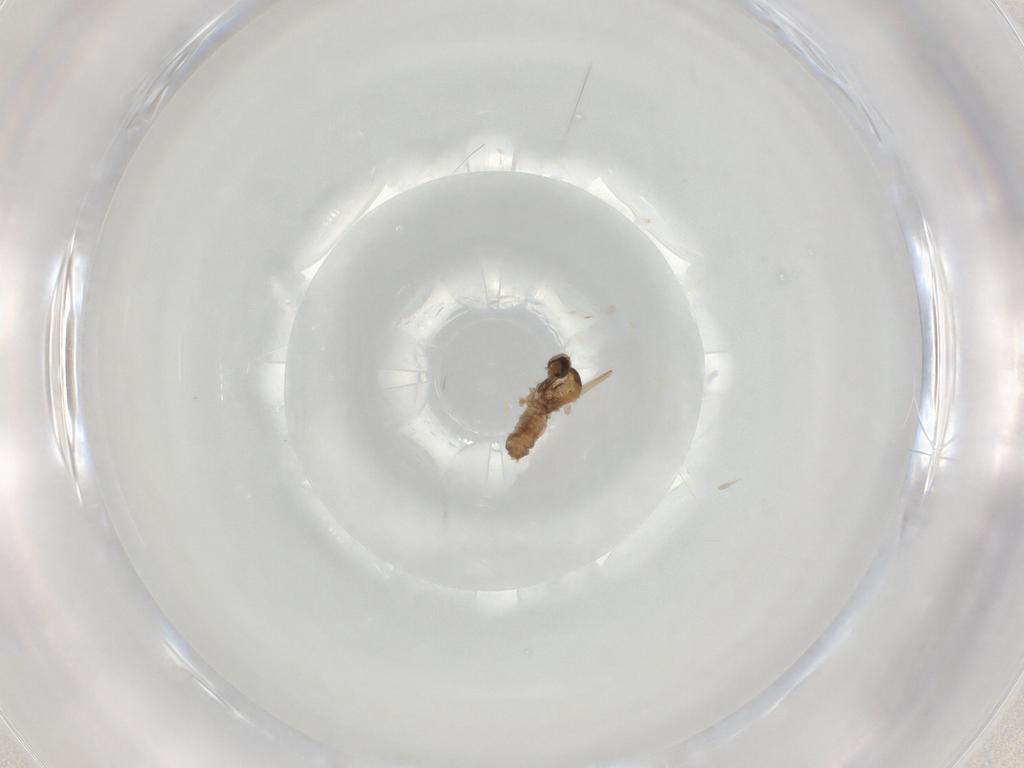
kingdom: Animalia
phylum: Arthropoda
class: Insecta
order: Diptera
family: Cecidomyiidae
